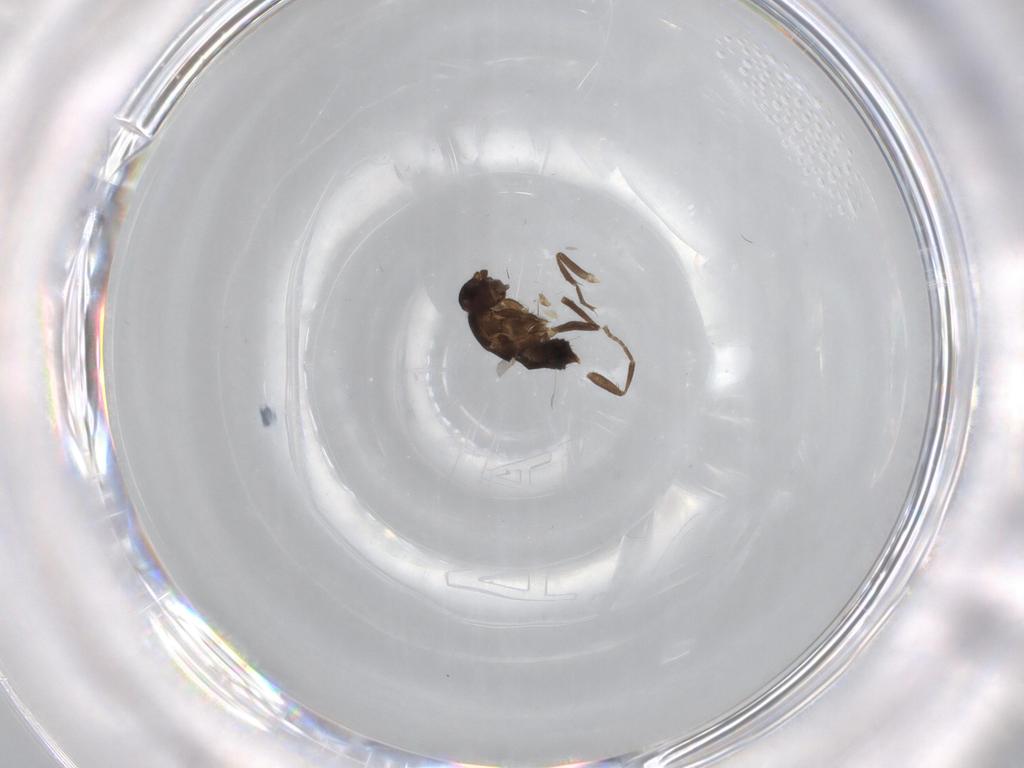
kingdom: Animalia
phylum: Arthropoda
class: Insecta
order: Diptera
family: Sphaeroceridae
